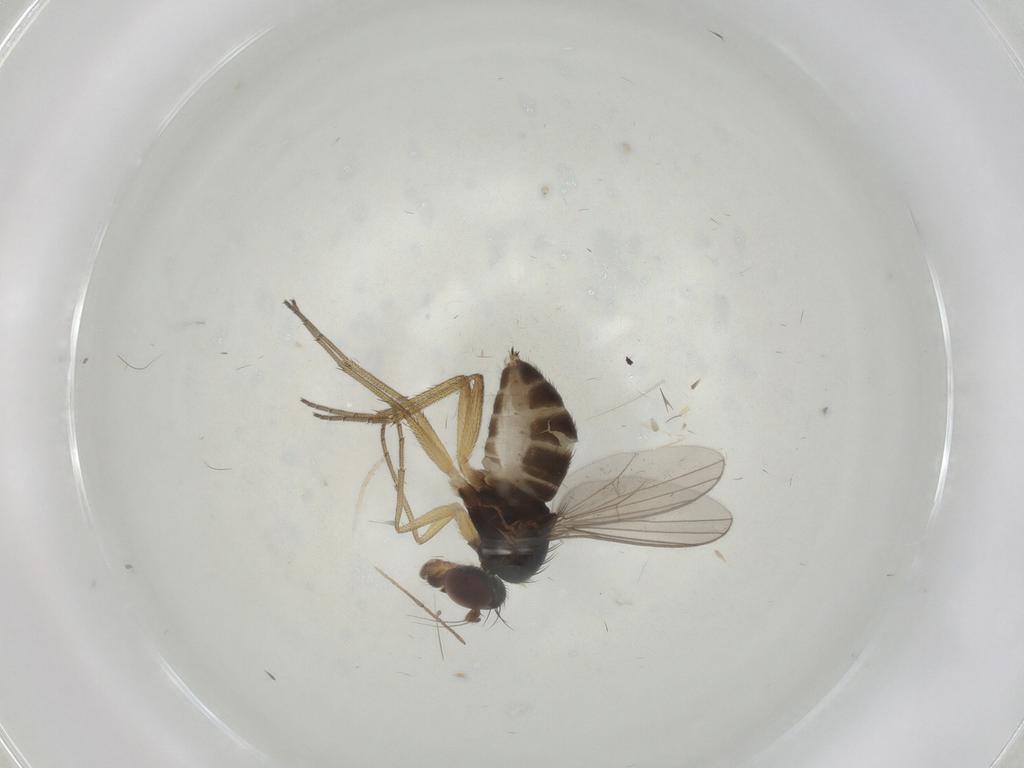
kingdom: Animalia
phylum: Arthropoda
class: Insecta
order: Diptera
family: Dolichopodidae
